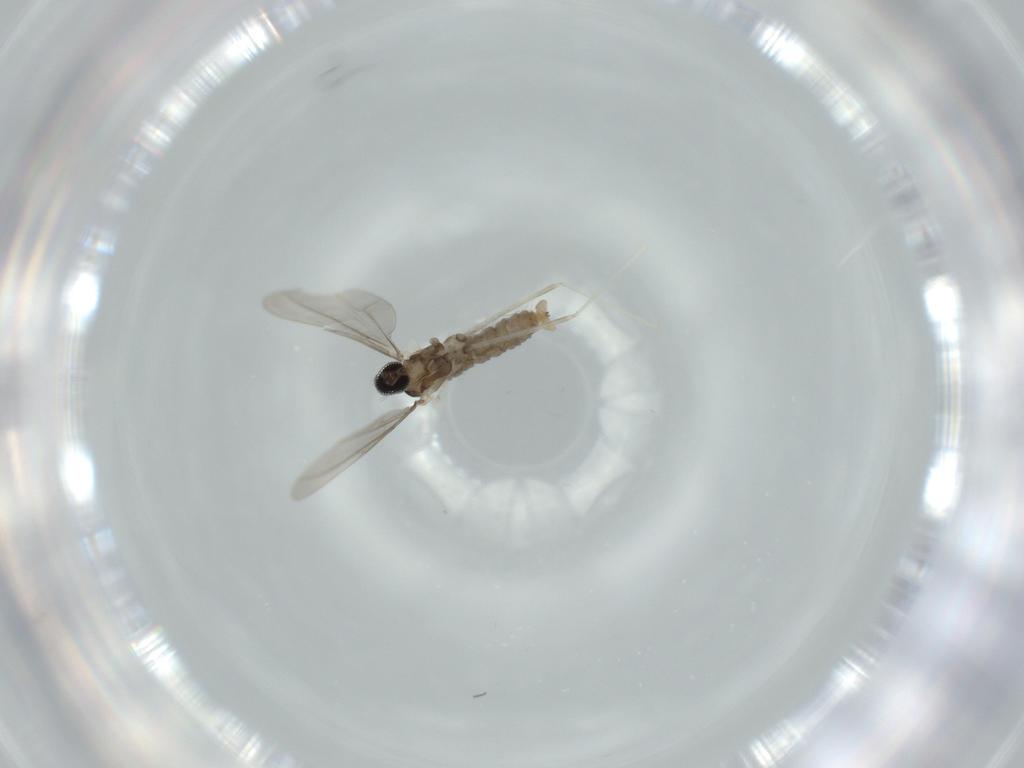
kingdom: Animalia
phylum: Arthropoda
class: Insecta
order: Diptera
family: Cecidomyiidae
